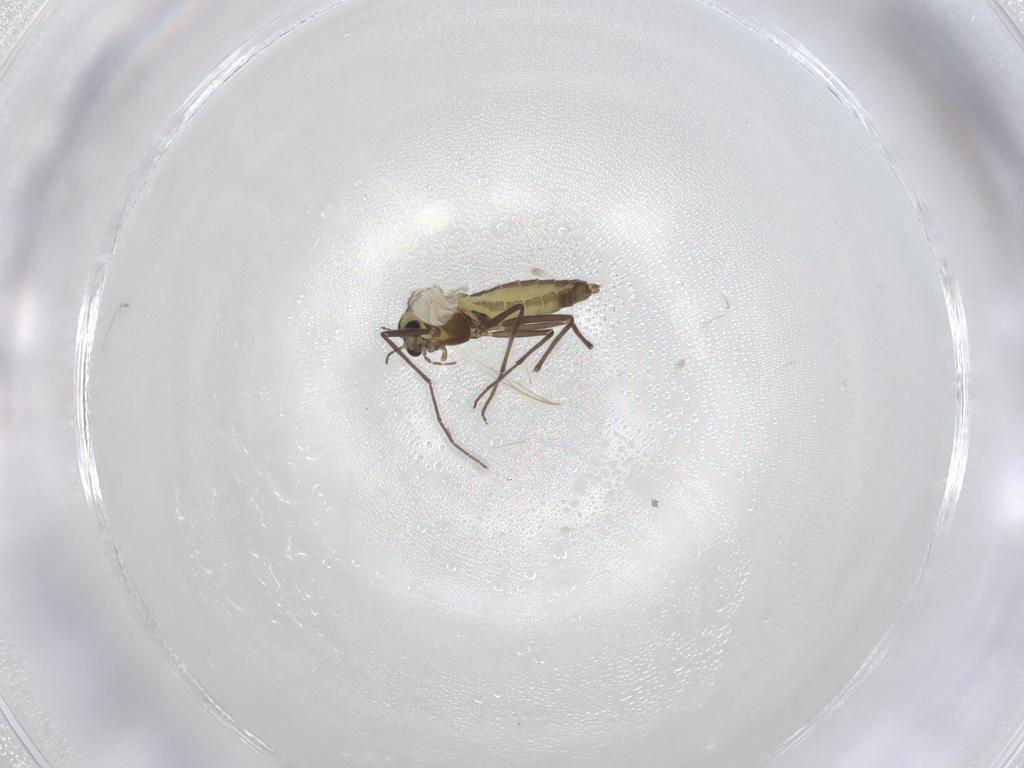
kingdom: Animalia
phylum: Arthropoda
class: Insecta
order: Diptera
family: Chironomidae
